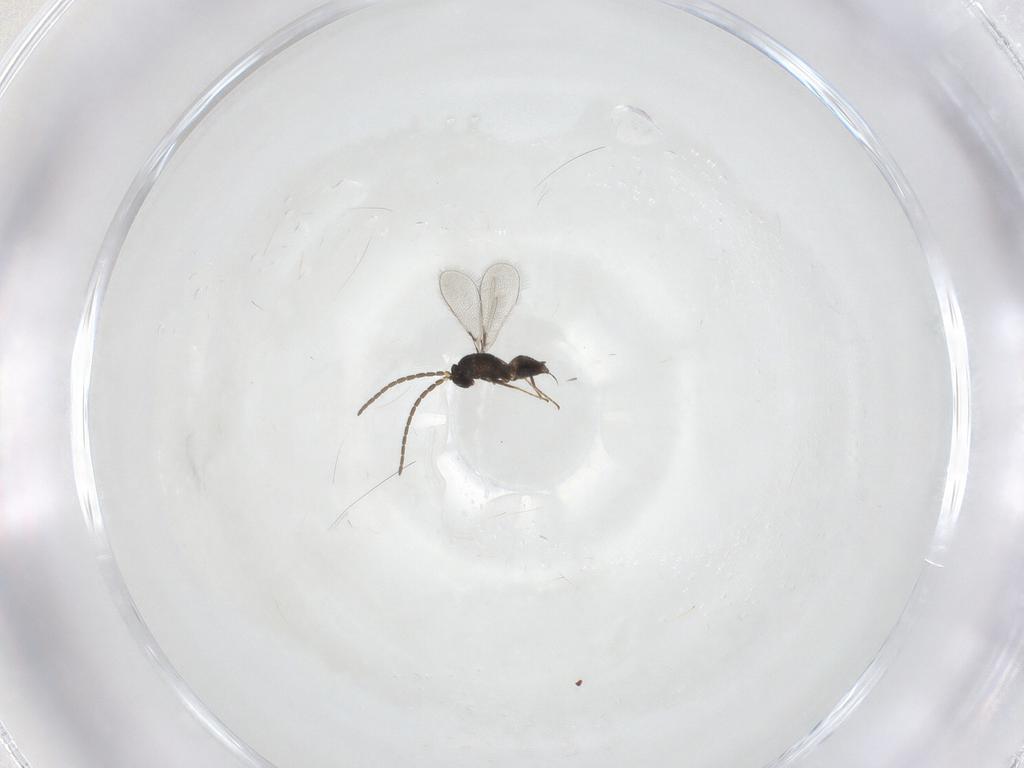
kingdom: Animalia
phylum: Arthropoda
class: Insecta
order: Hymenoptera
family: Mymaridae
